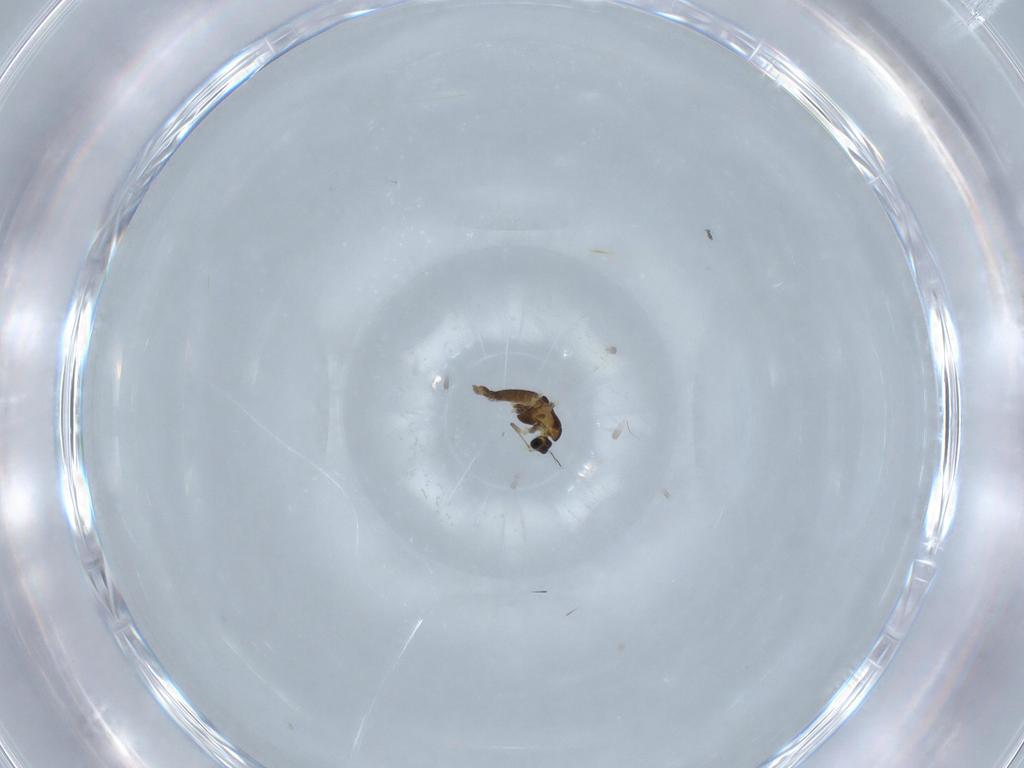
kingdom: Animalia
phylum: Arthropoda
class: Insecta
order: Diptera
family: Chironomidae
